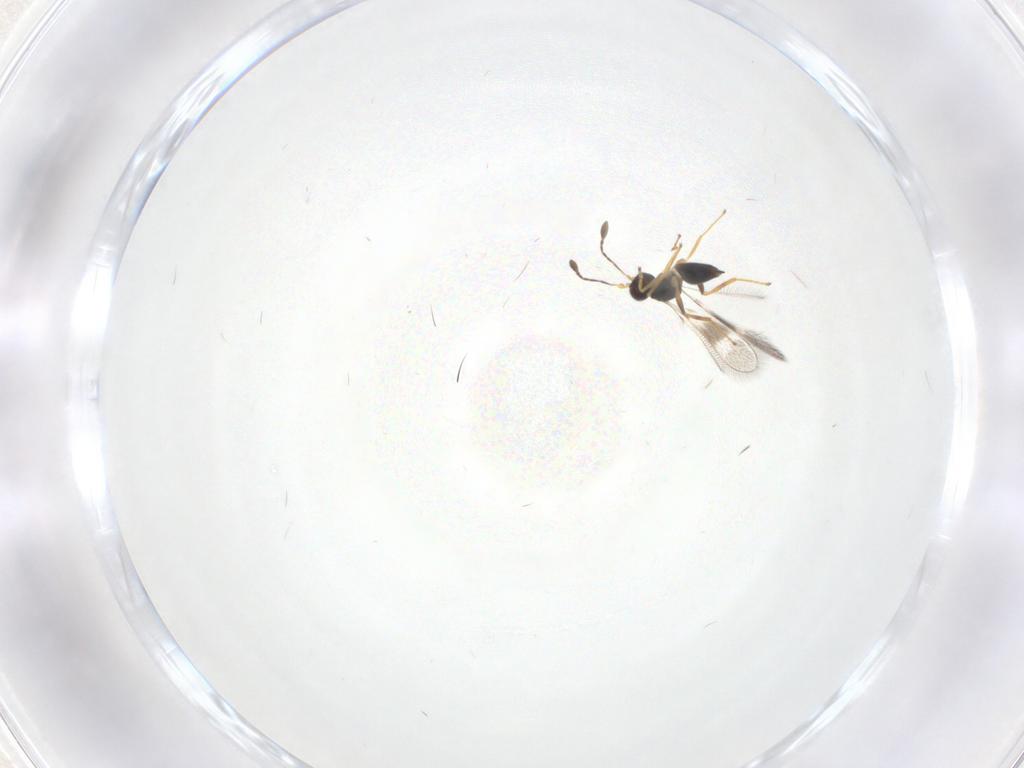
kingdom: Animalia
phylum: Arthropoda
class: Insecta
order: Hymenoptera
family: Mymaridae
